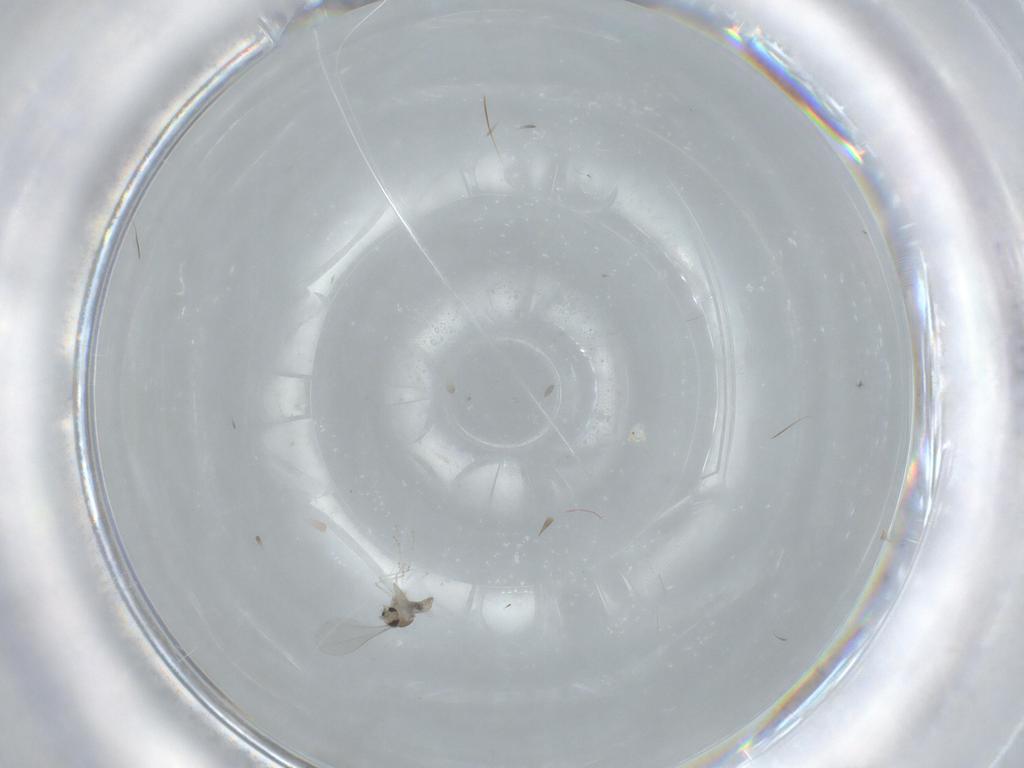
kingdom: Animalia
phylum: Arthropoda
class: Insecta
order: Diptera
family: Cecidomyiidae
